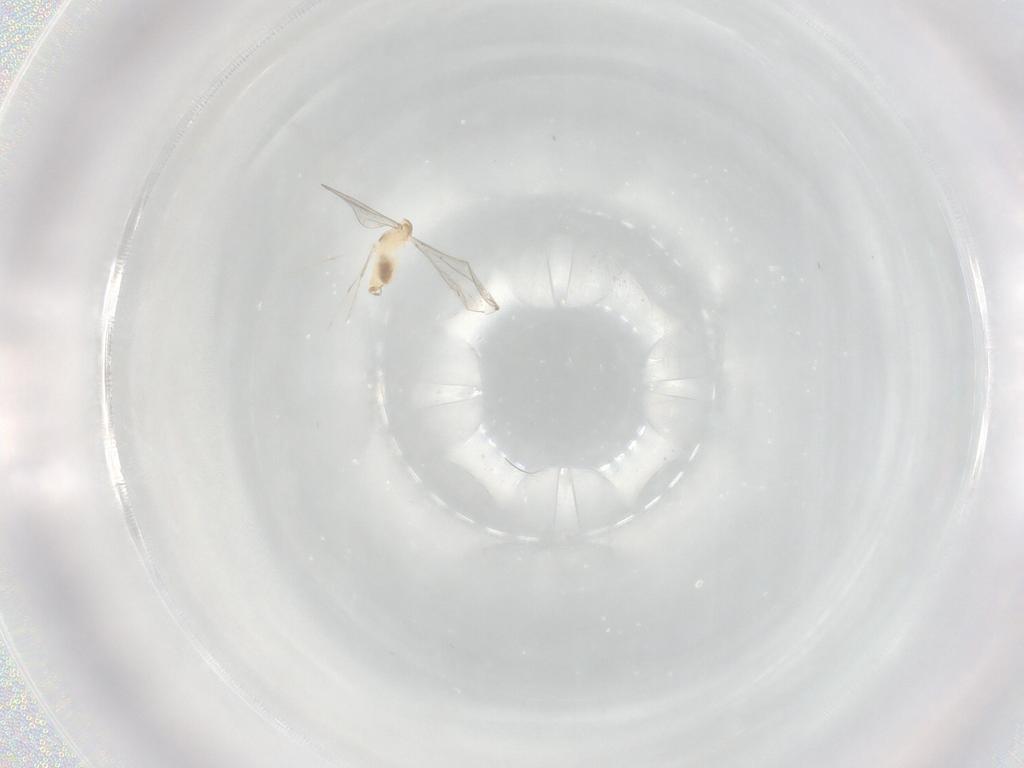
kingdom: Animalia
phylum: Arthropoda
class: Insecta
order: Diptera
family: Cecidomyiidae
